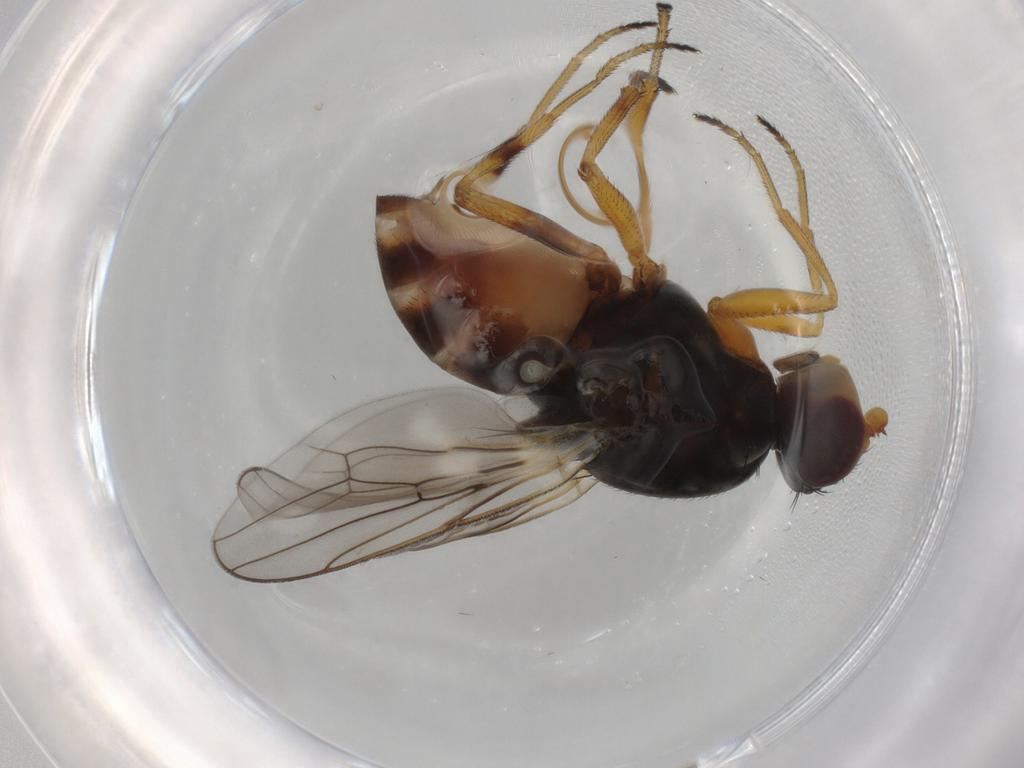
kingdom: Animalia
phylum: Arthropoda
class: Insecta
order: Diptera
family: Chloropidae
